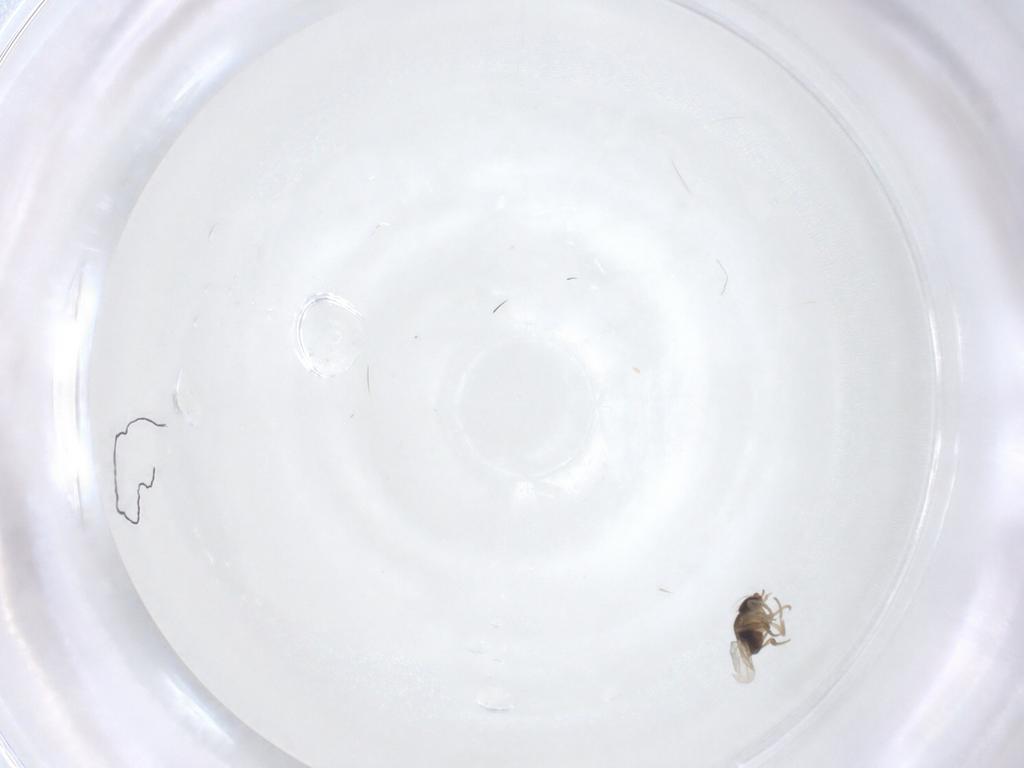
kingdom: Animalia
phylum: Arthropoda
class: Insecta
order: Diptera
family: Phoridae
